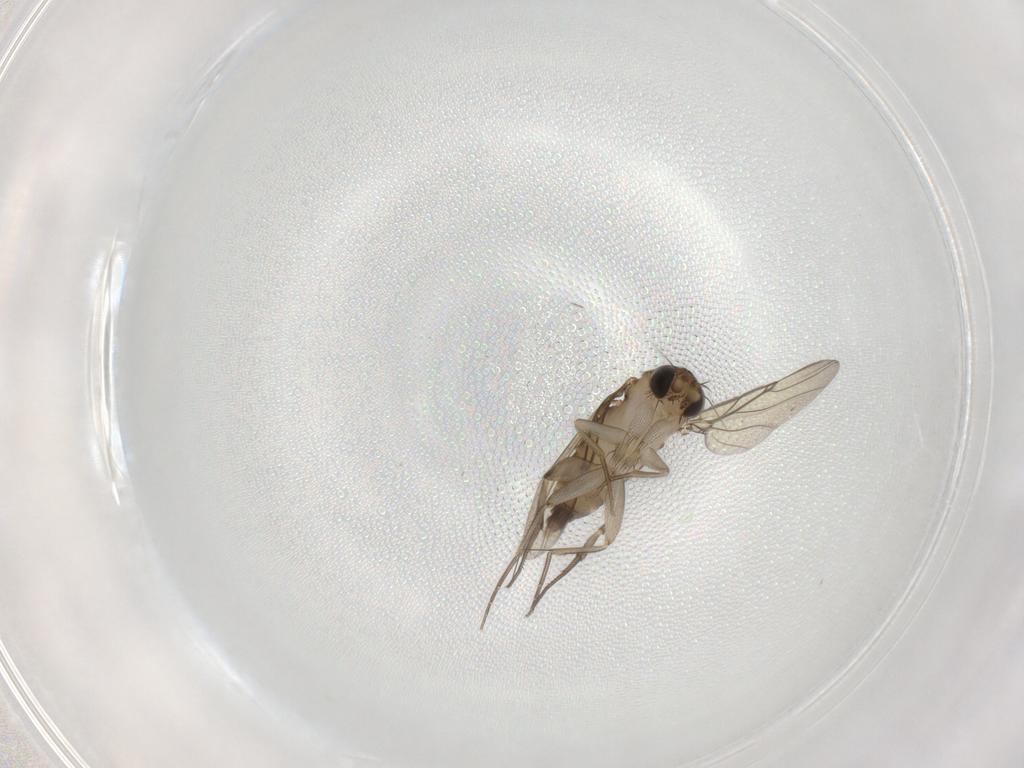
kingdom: Animalia
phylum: Arthropoda
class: Insecta
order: Diptera
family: Phoridae
